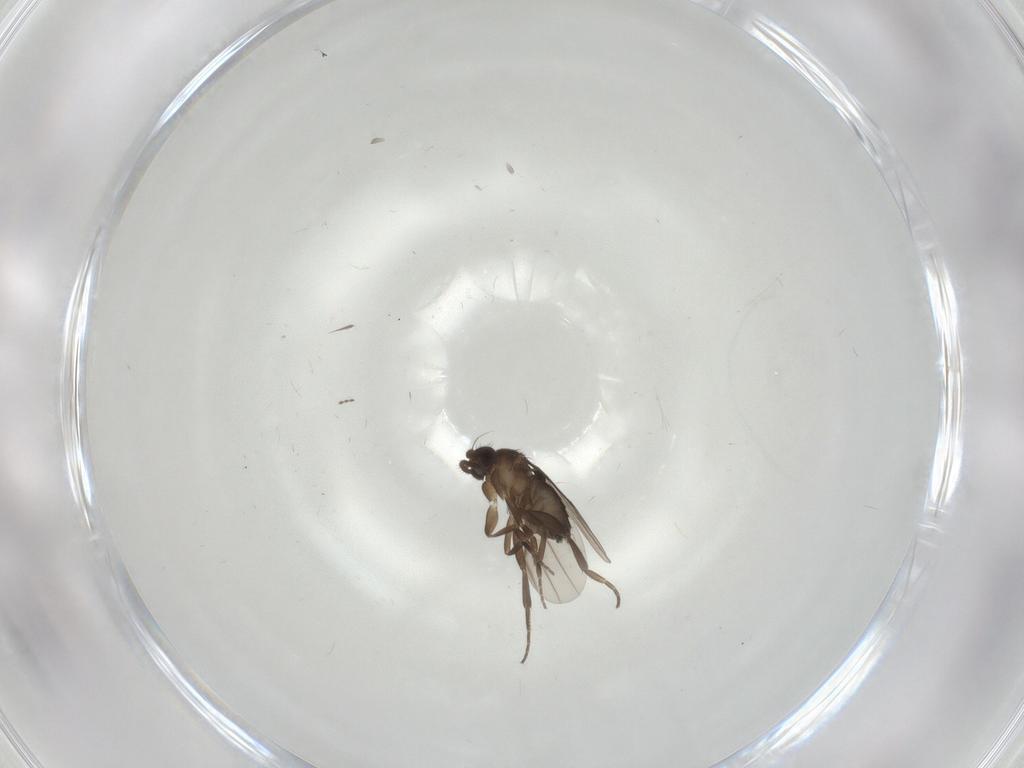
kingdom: Animalia
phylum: Arthropoda
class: Insecta
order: Diptera
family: Phoridae
